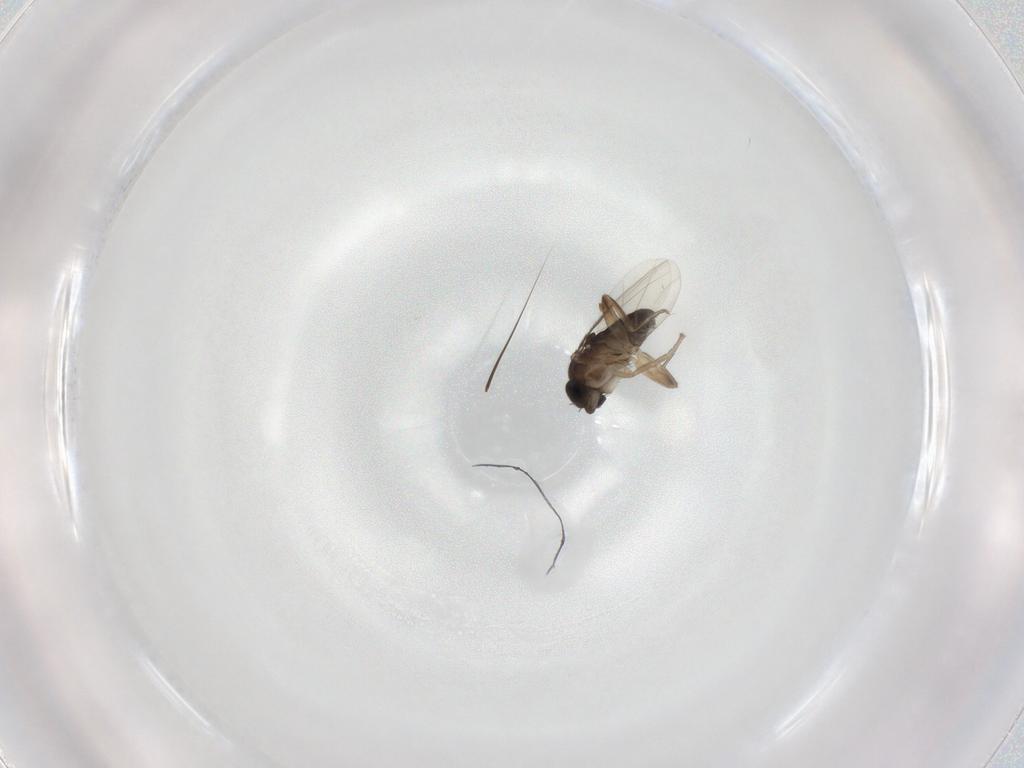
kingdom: Animalia
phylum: Arthropoda
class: Insecta
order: Diptera
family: Phoridae
